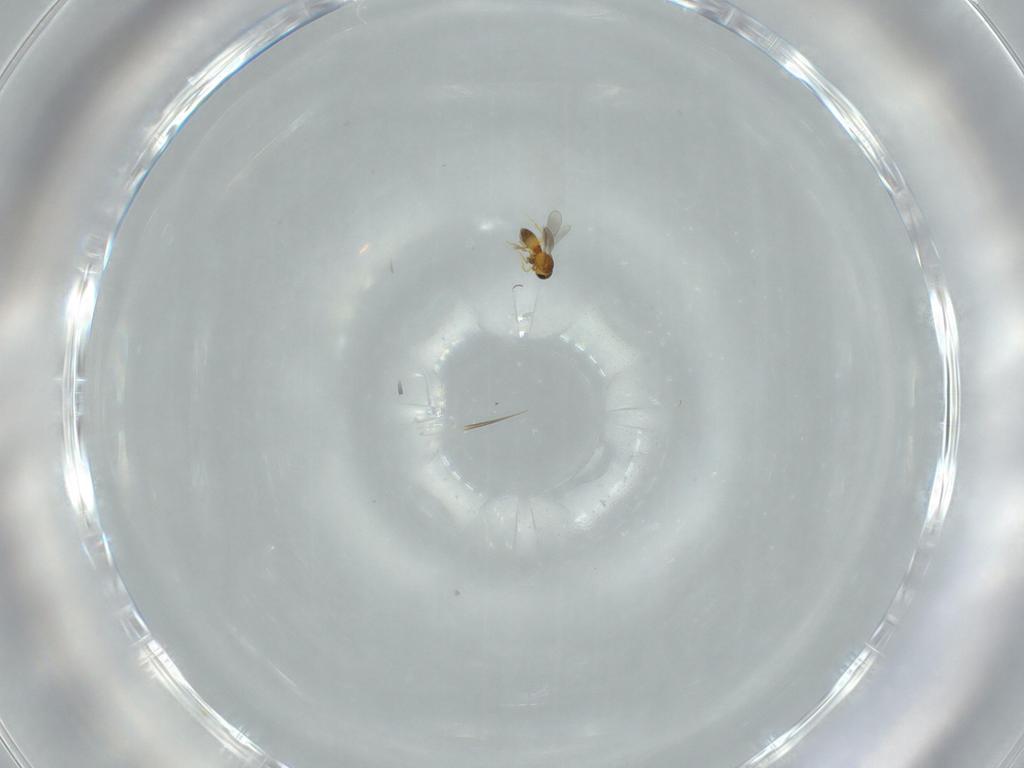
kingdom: Animalia
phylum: Arthropoda
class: Insecta
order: Hymenoptera
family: Platygastridae
